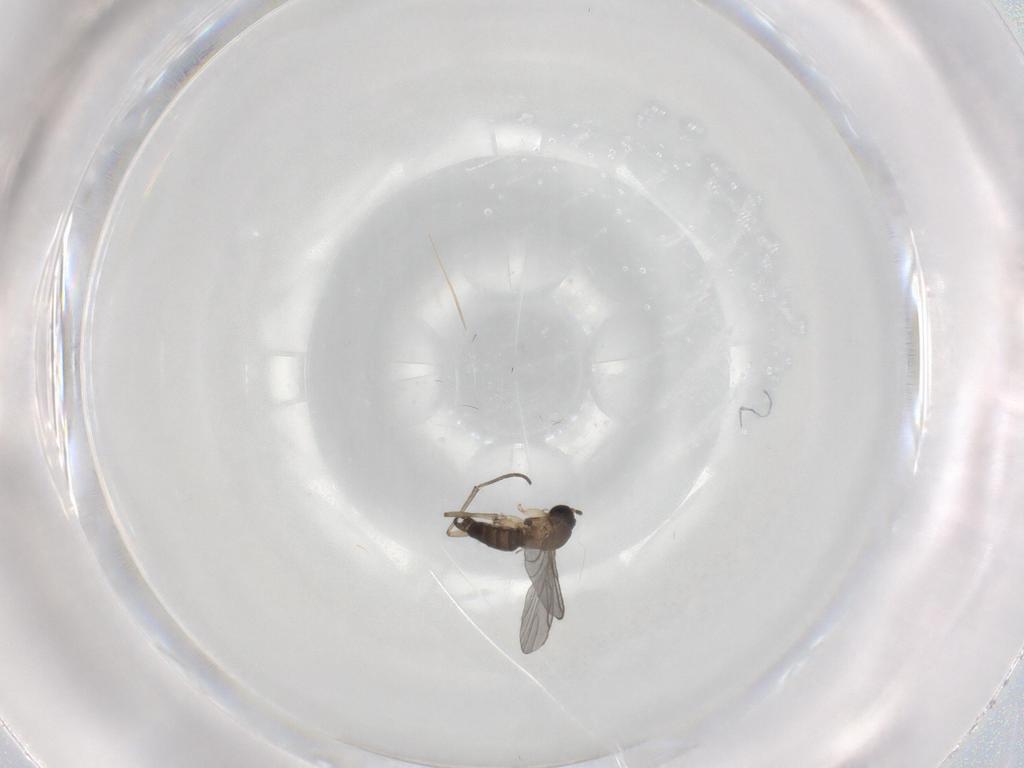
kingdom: Animalia
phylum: Arthropoda
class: Insecta
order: Diptera
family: Sciaridae
